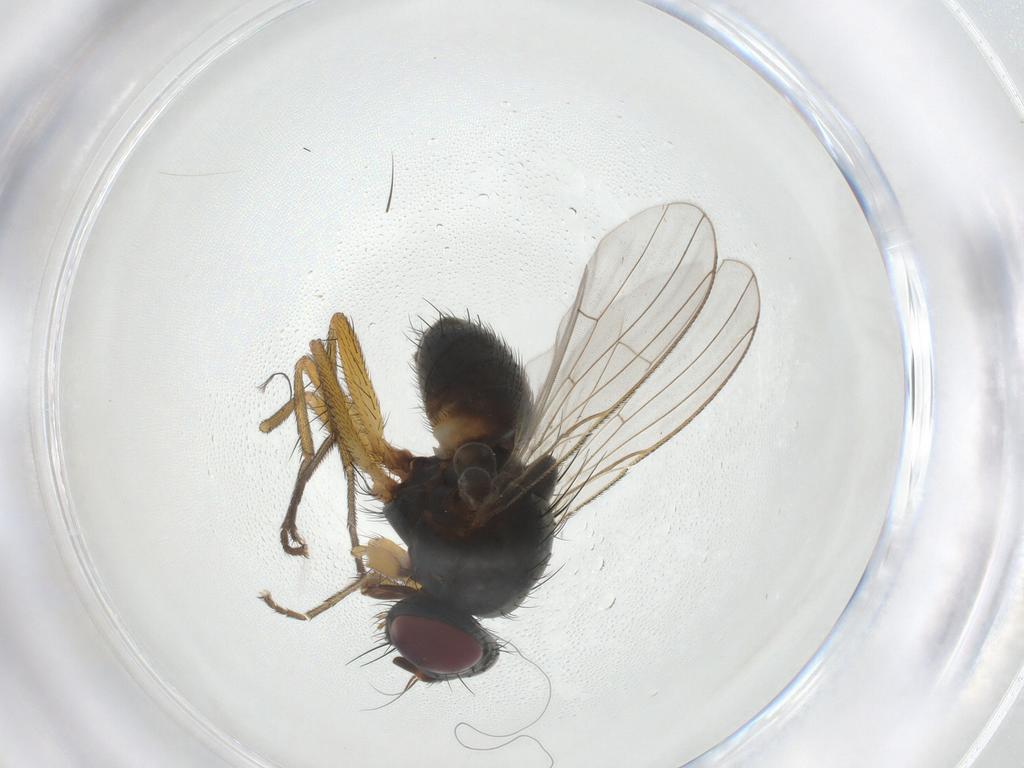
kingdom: Animalia
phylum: Arthropoda
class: Insecta
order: Diptera
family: Muscidae
